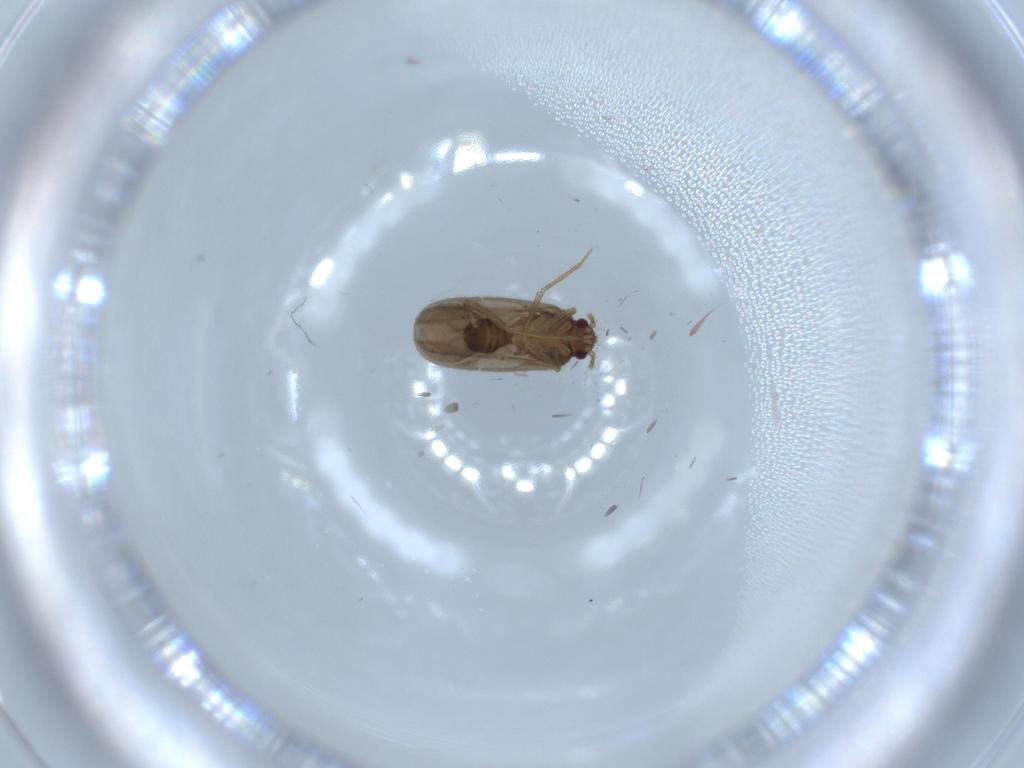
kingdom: Animalia
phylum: Arthropoda
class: Insecta
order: Hemiptera
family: Ceratocombidae
